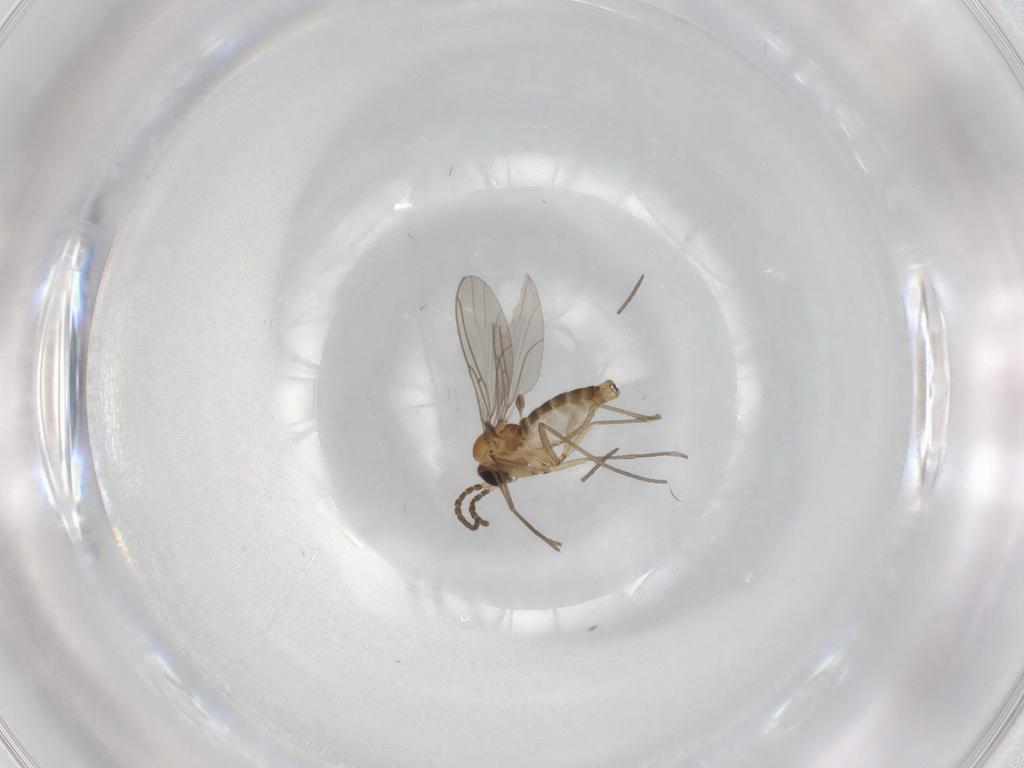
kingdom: Animalia
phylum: Arthropoda
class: Insecta
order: Diptera
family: Sciaridae
